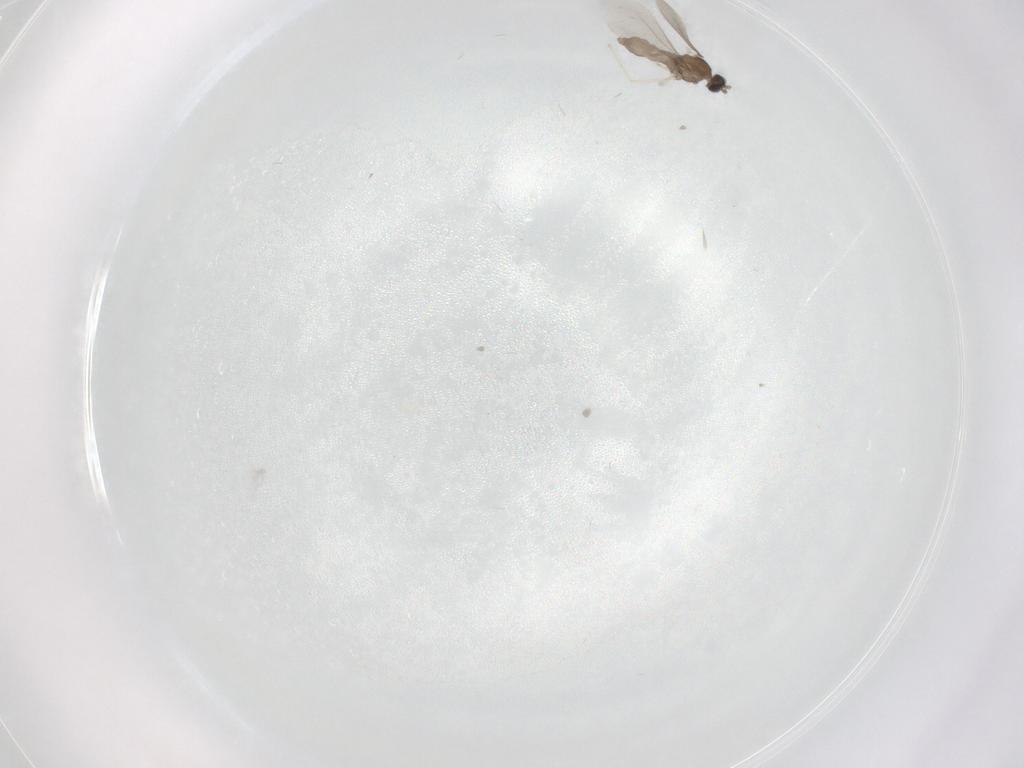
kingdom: Animalia
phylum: Arthropoda
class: Insecta
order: Diptera
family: Cecidomyiidae
